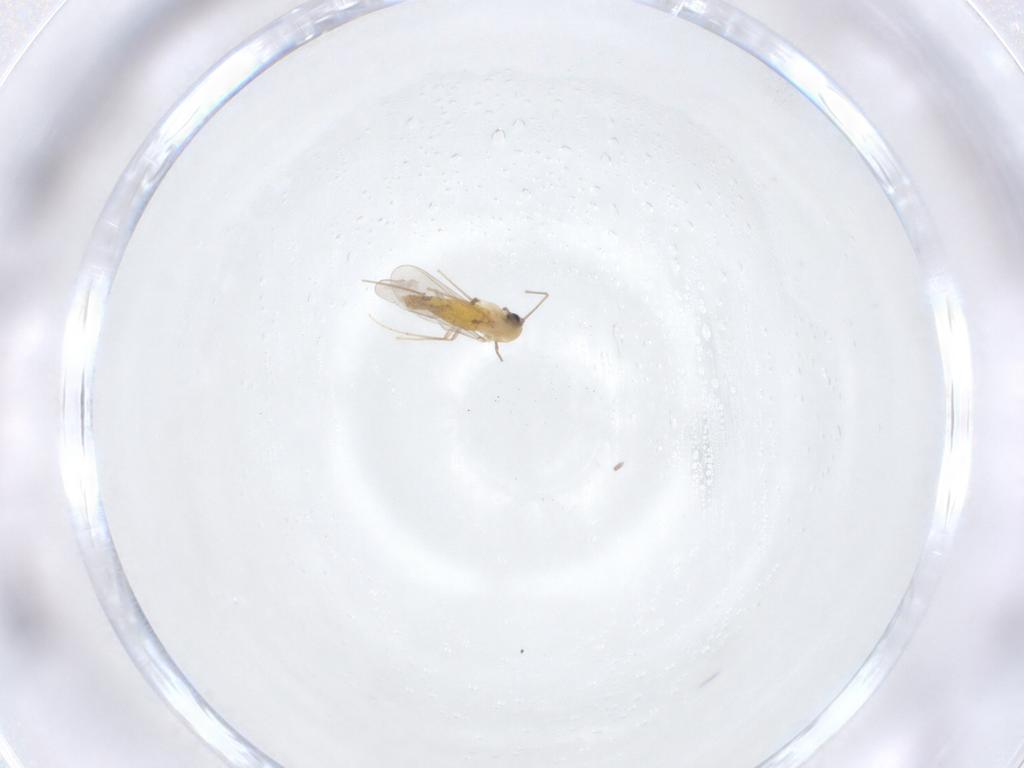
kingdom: Animalia
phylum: Arthropoda
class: Insecta
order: Diptera
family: Chironomidae
